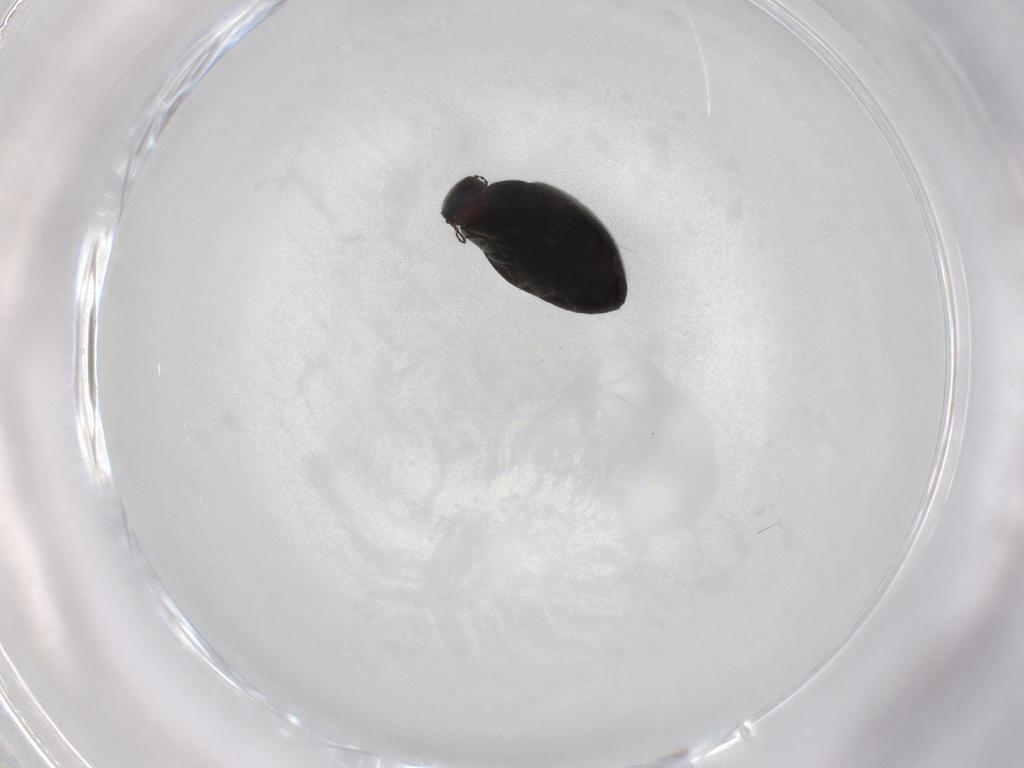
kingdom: Animalia
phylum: Arthropoda
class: Insecta
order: Coleoptera
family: Limnichidae
